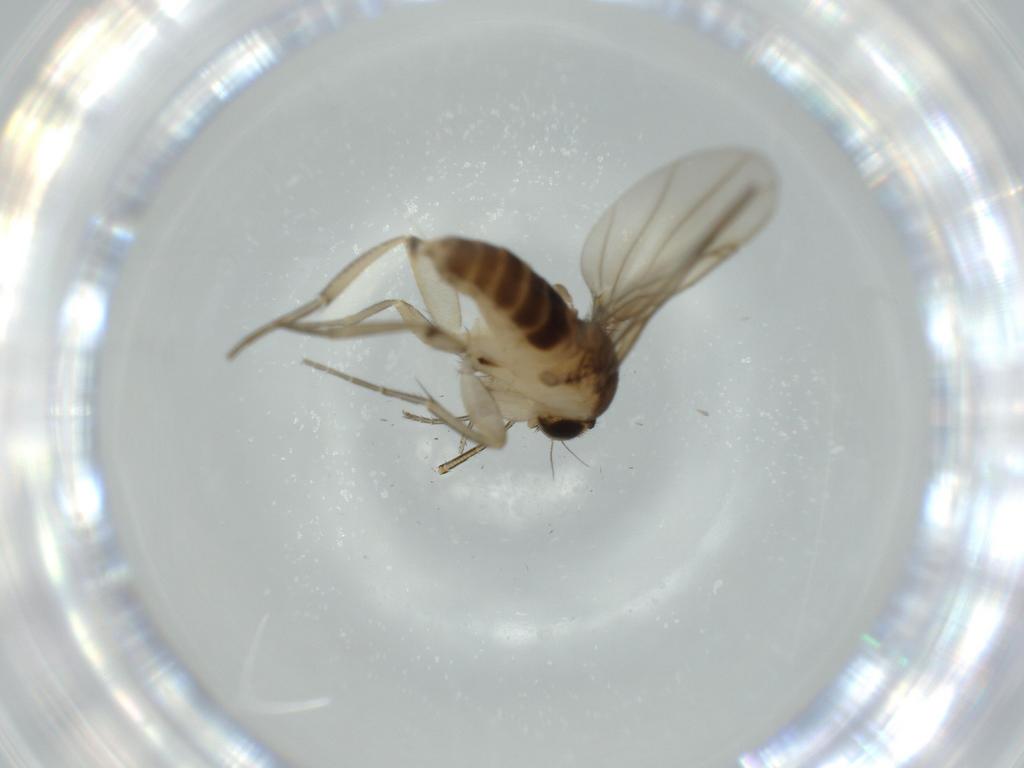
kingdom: Animalia
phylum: Arthropoda
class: Insecta
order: Diptera
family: Phoridae
